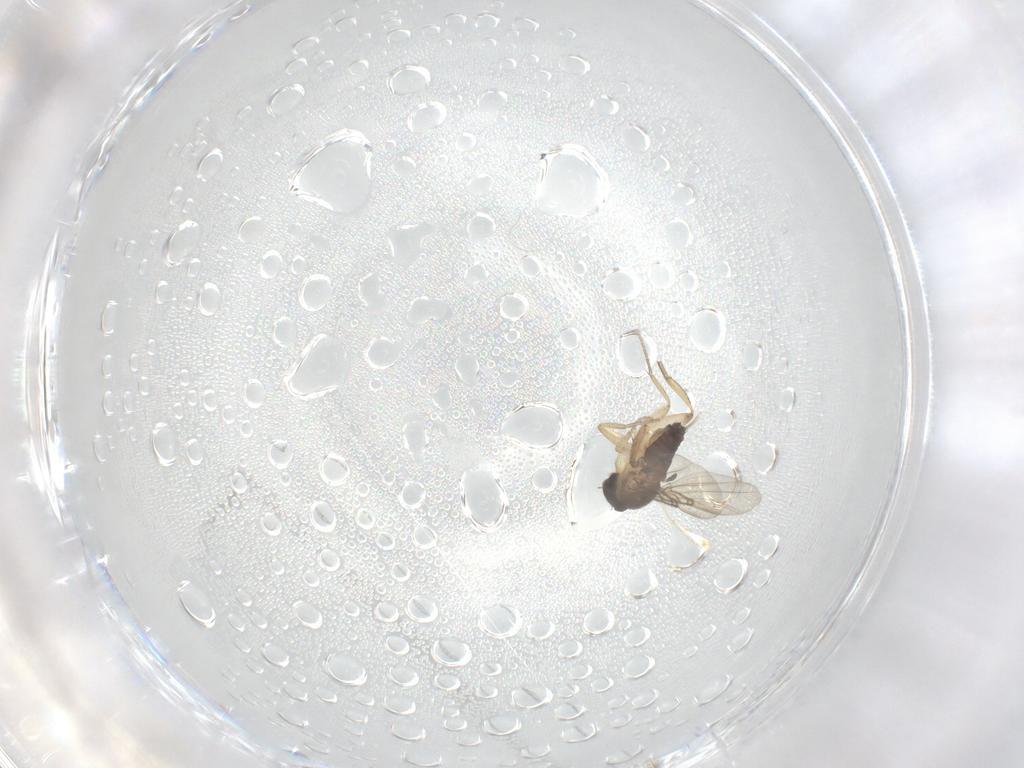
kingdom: Animalia
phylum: Arthropoda
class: Insecta
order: Diptera
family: Phoridae
